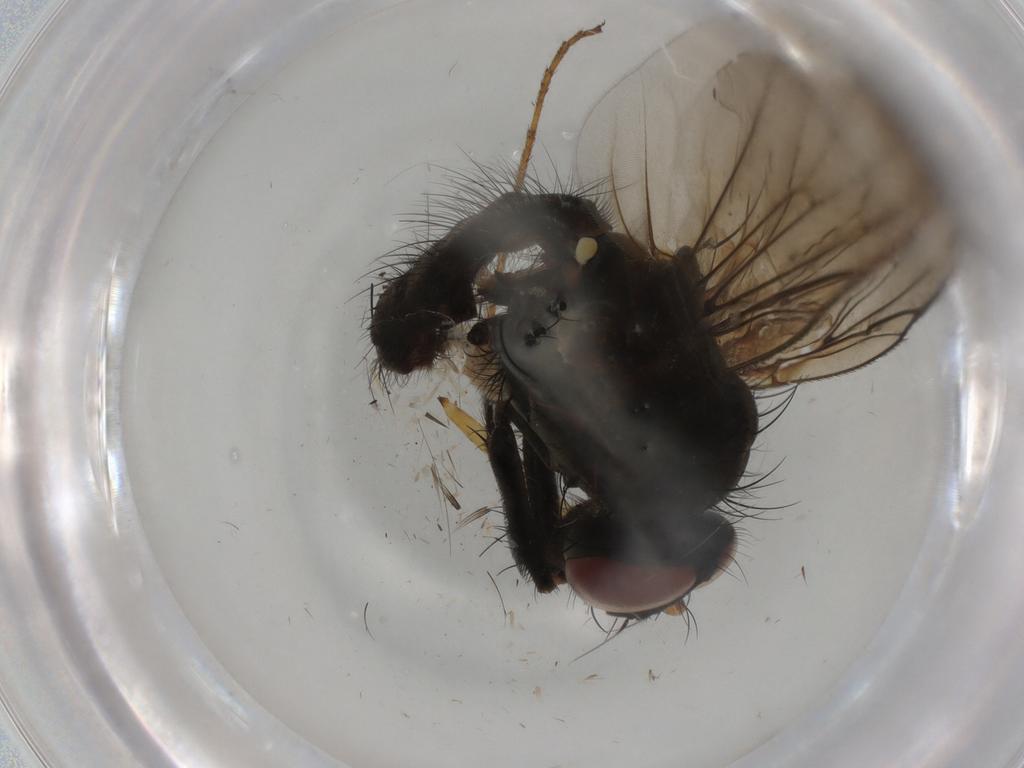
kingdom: Animalia
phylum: Arthropoda
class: Insecta
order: Diptera
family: Anthomyiidae
